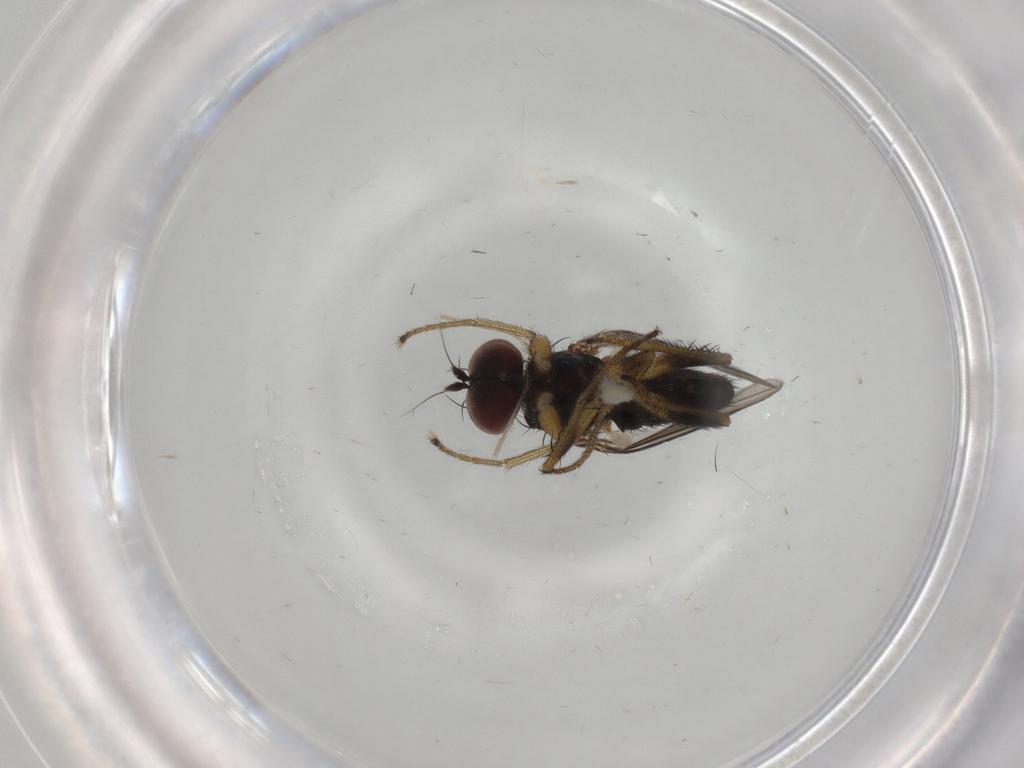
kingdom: Animalia
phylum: Arthropoda
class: Insecta
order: Diptera
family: Dolichopodidae
